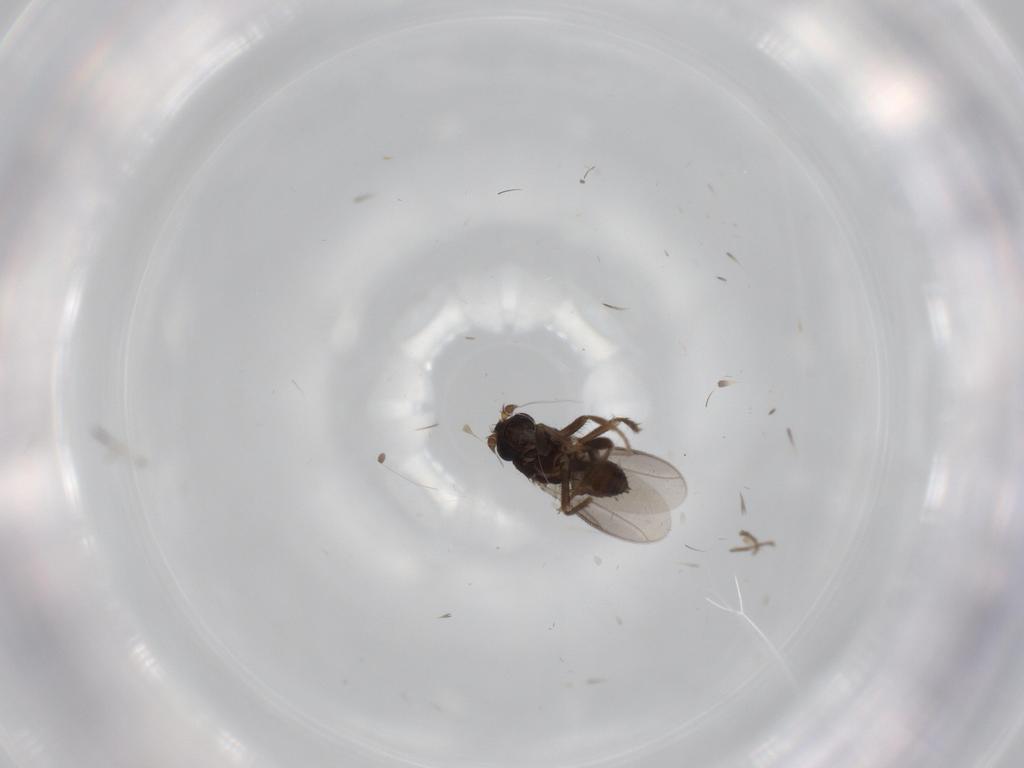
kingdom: Animalia
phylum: Arthropoda
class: Insecta
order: Diptera
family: Sphaeroceridae
